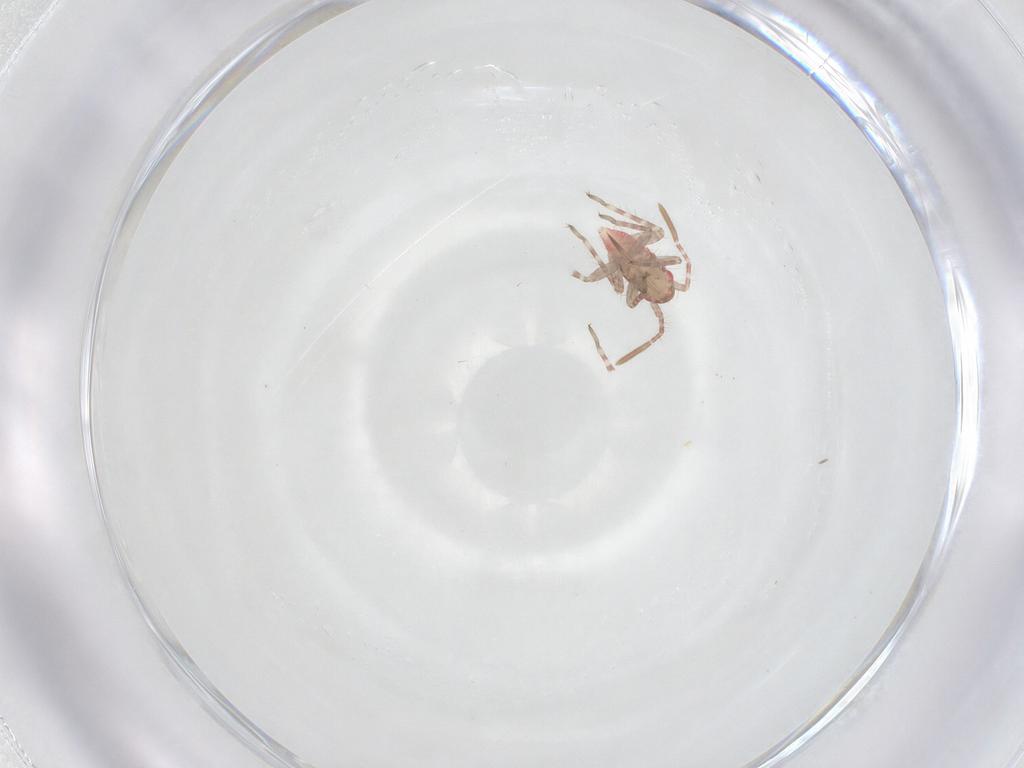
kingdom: Animalia
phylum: Arthropoda
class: Insecta
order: Hemiptera
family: Miridae
